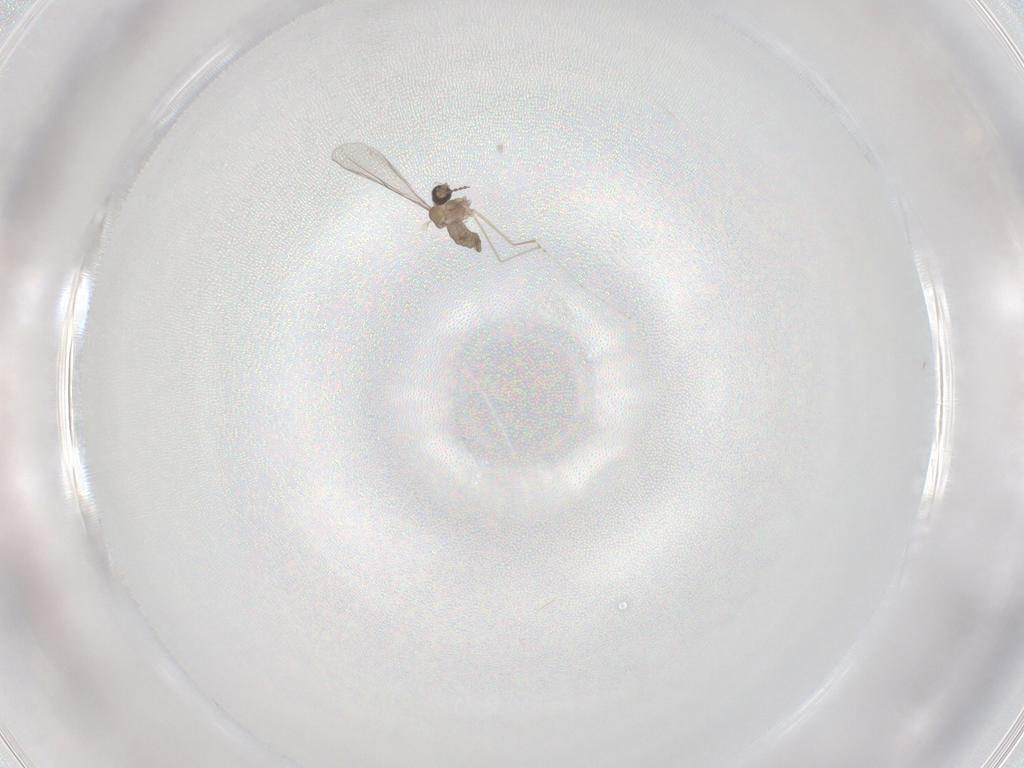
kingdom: Animalia
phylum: Arthropoda
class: Insecta
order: Diptera
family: Cecidomyiidae
